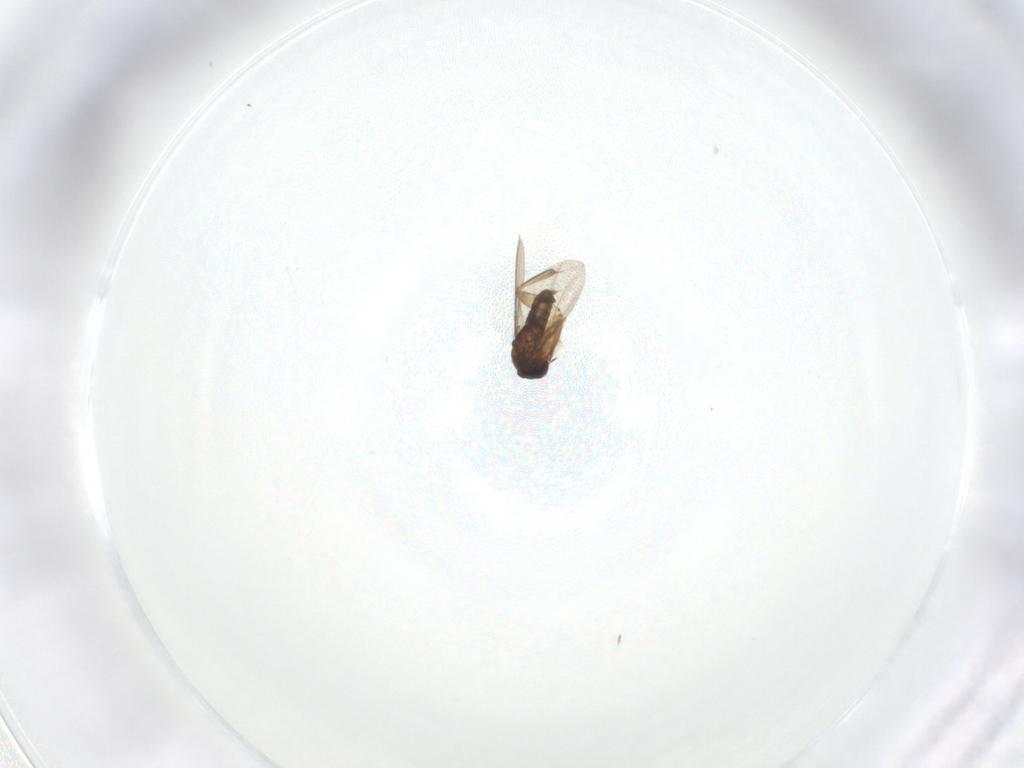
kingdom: Animalia
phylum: Arthropoda
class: Insecta
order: Diptera
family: Phoridae
